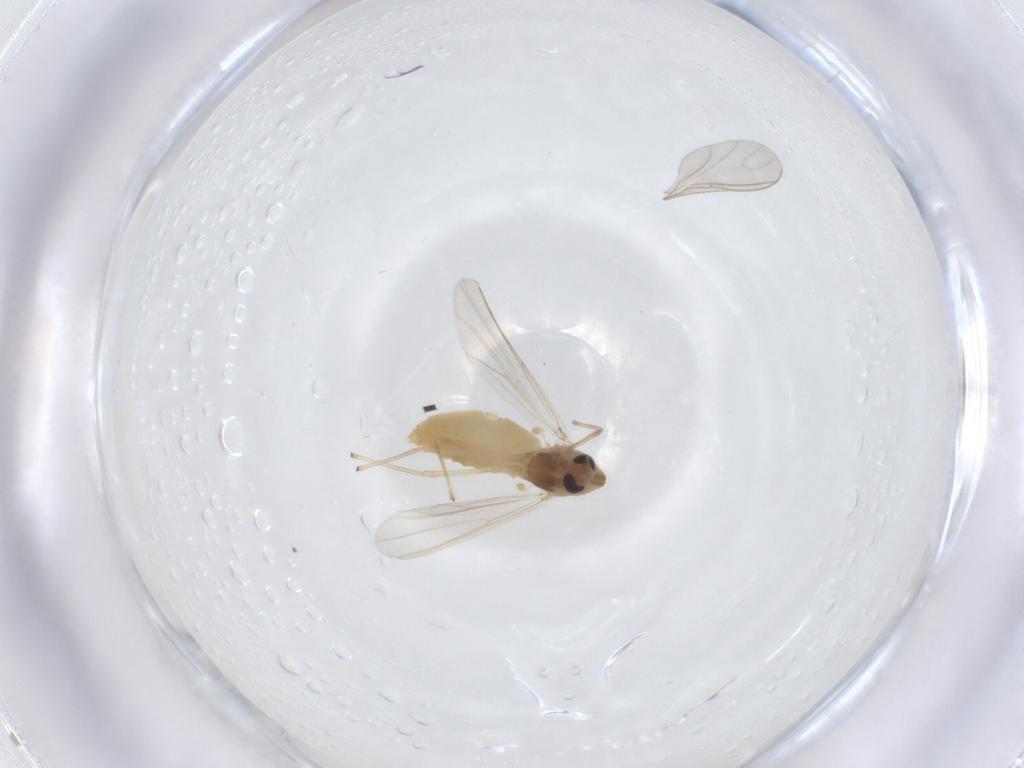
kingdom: Animalia
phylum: Arthropoda
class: Insecta
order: Diptera
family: Chironomidae
